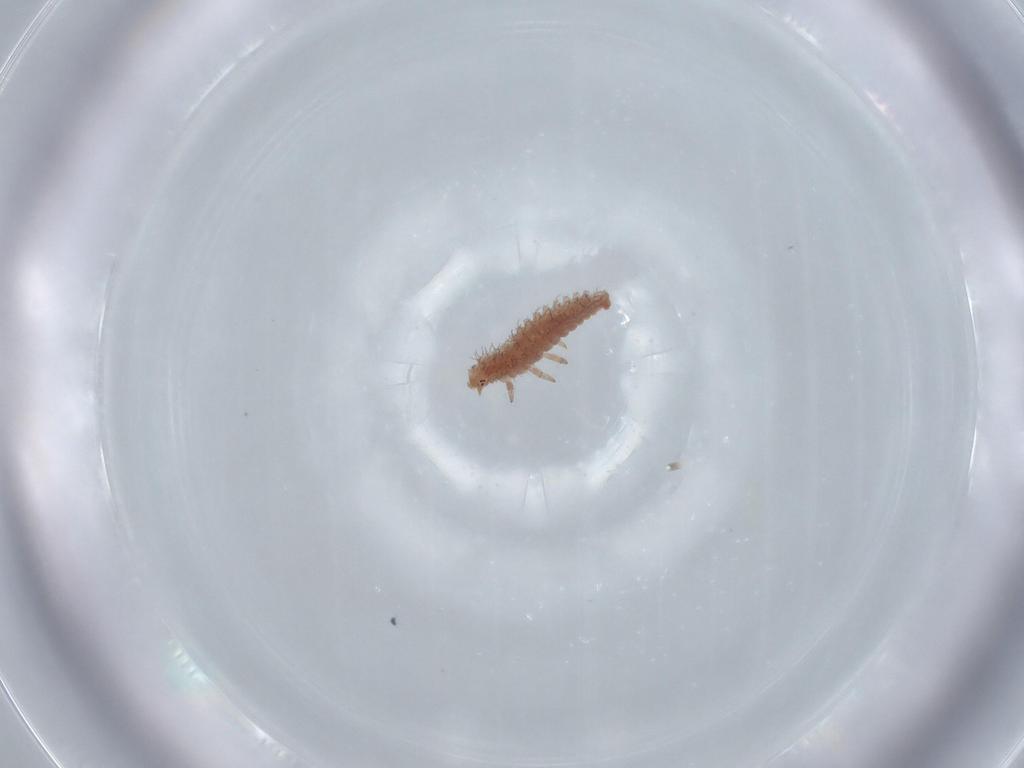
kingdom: Animalia
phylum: Arthropoda
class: Insecta
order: Coleoptera
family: Coccinellidae
